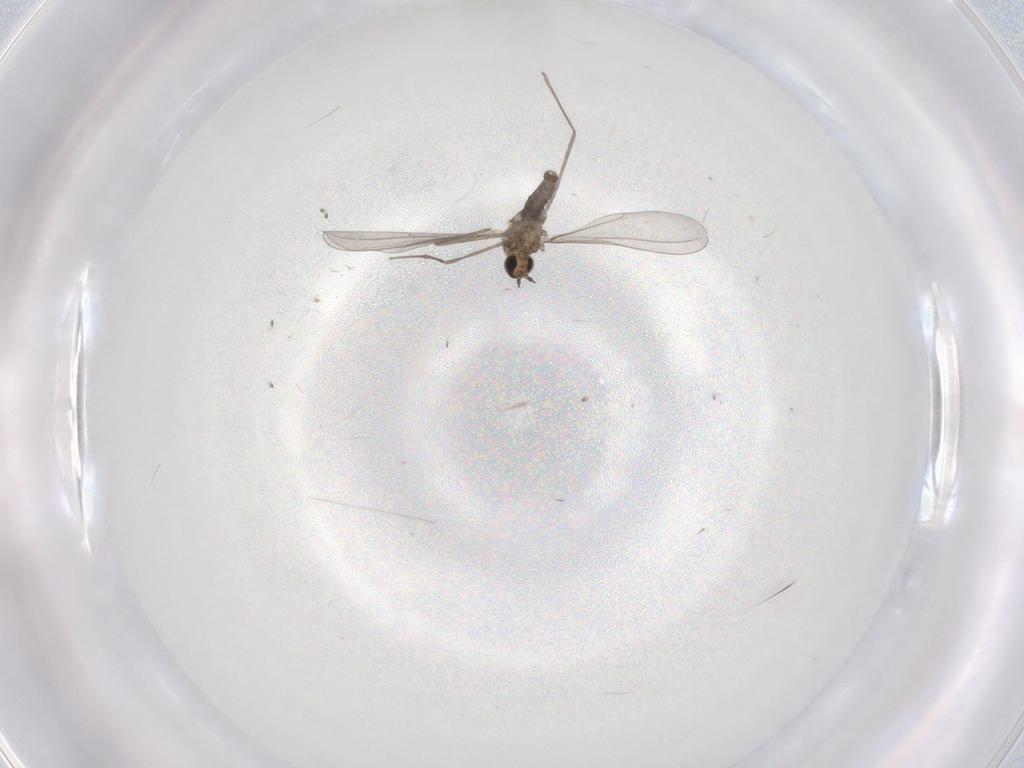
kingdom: Animalia
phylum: Arthropoda
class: Insecta
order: Diptera
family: Cecidomyiidae
